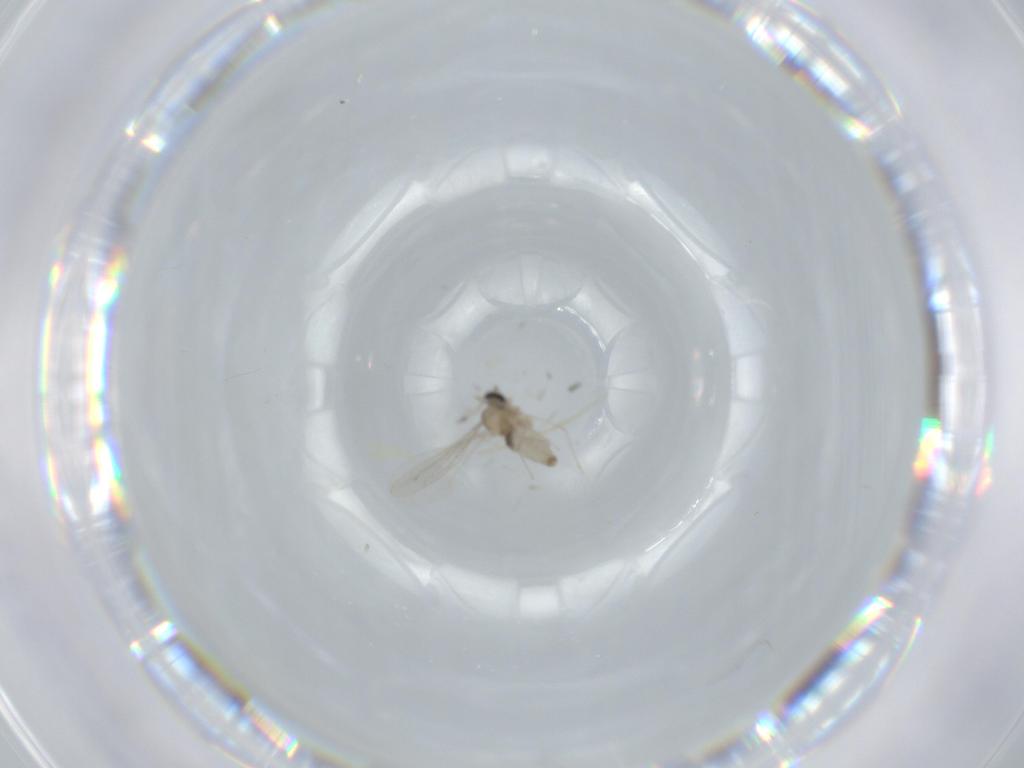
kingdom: Animalia
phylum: Arthropoda
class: Insecta
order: Diptera
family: Cecidomyiidae
